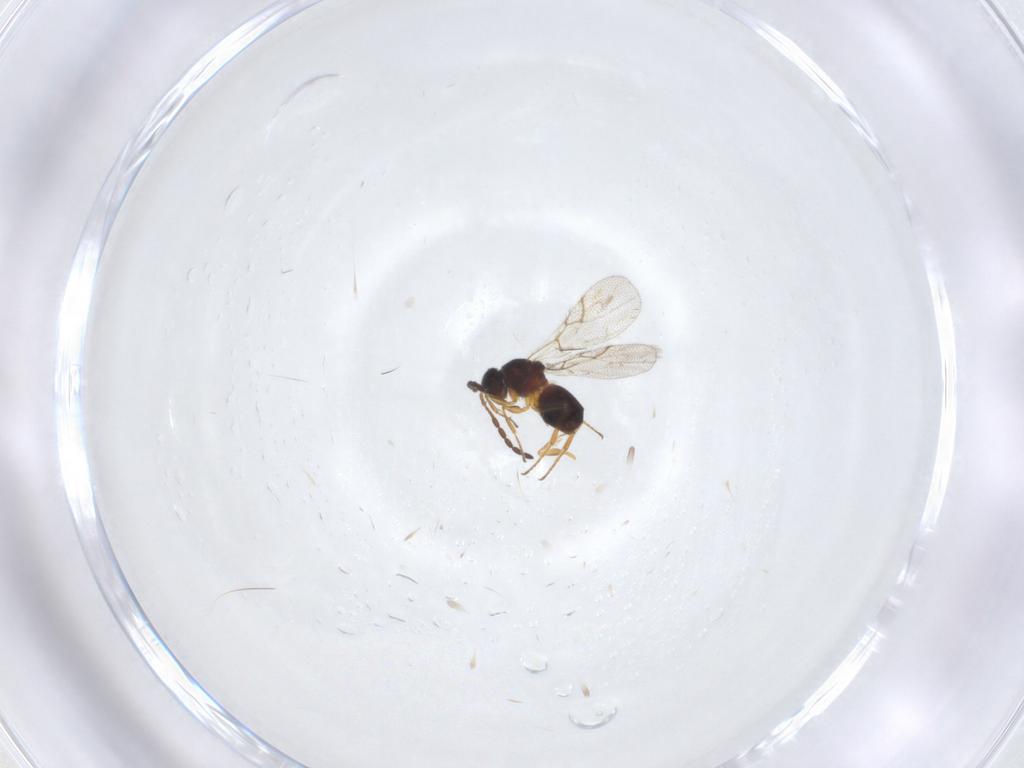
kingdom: Animalia
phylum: Arthropoda
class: Insecta
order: Hymenoptera
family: Figitidae
